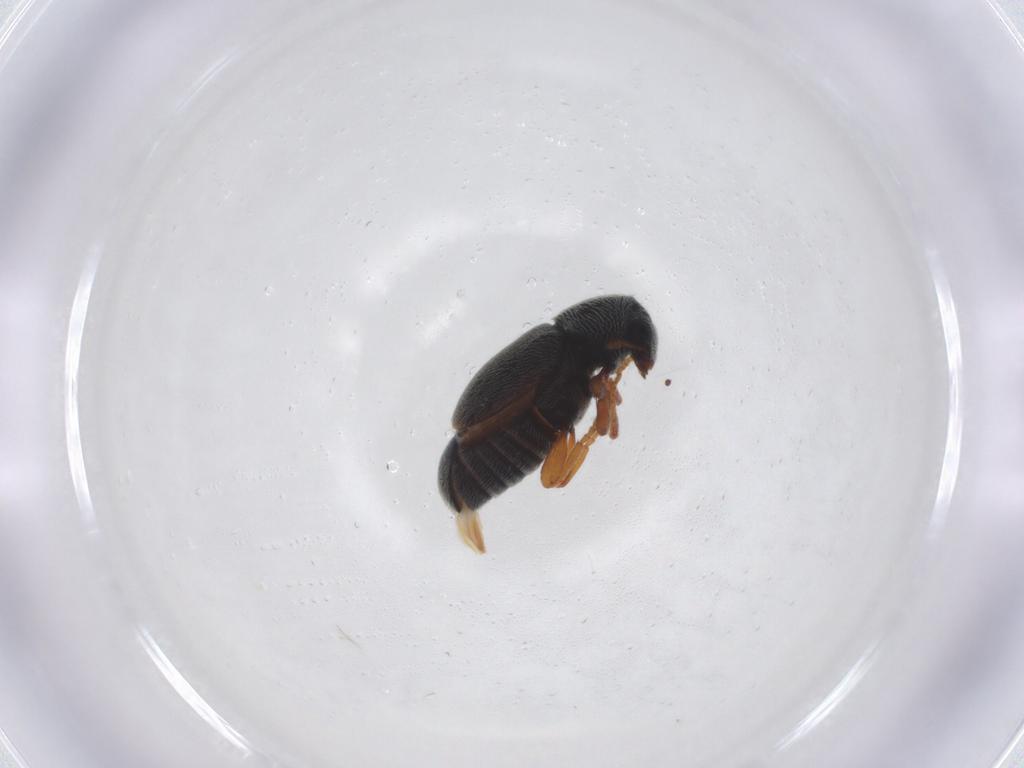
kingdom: Animalia
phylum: Arthropoda
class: Insecta
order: Coleoptera
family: Anthribidae
